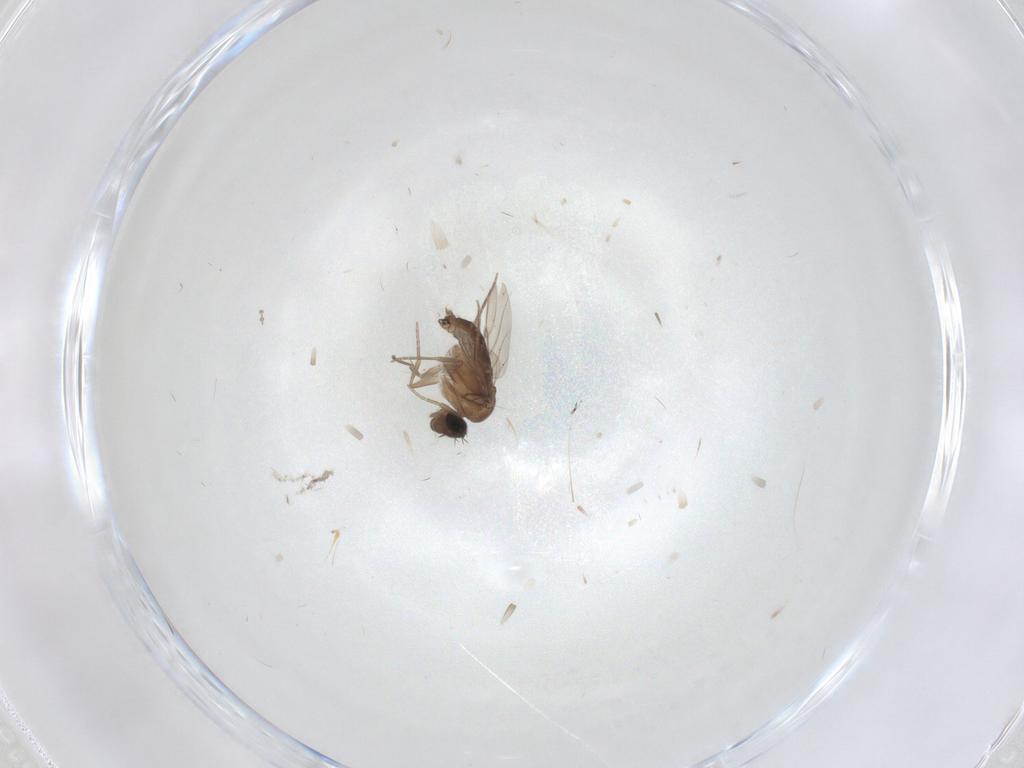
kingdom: Animalia
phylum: Arthropoda
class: Insecta
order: Diptera
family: Phoridae
